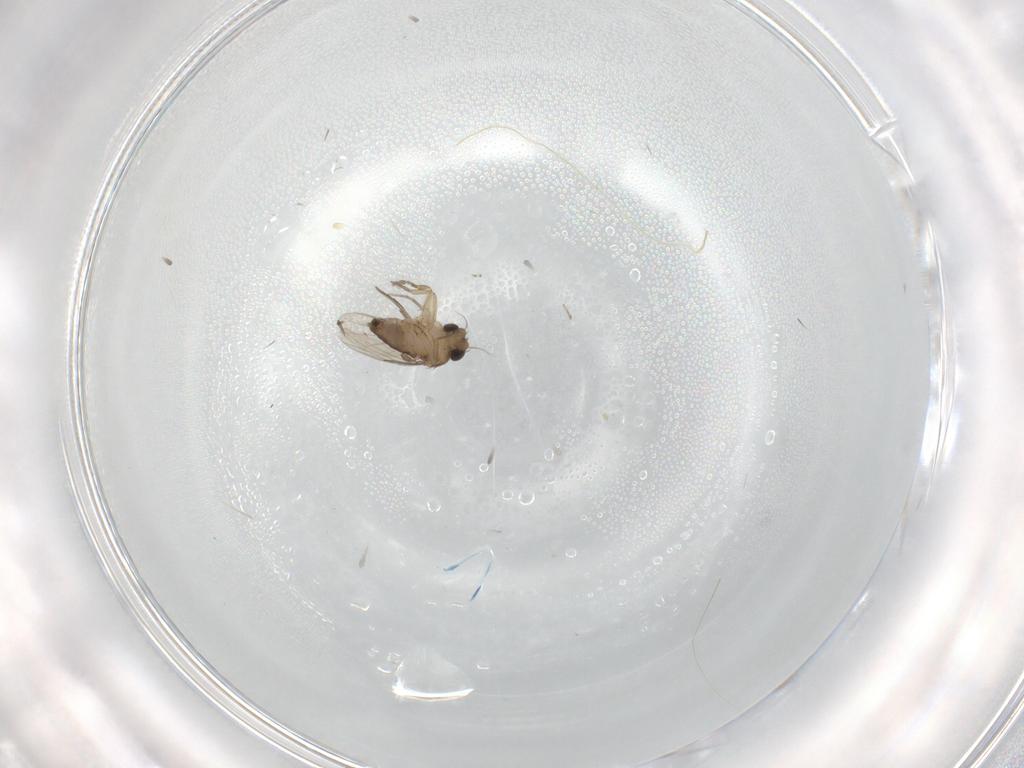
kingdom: Animalia
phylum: Arthropoda
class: Insecta
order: Diptera
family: Phoridae
